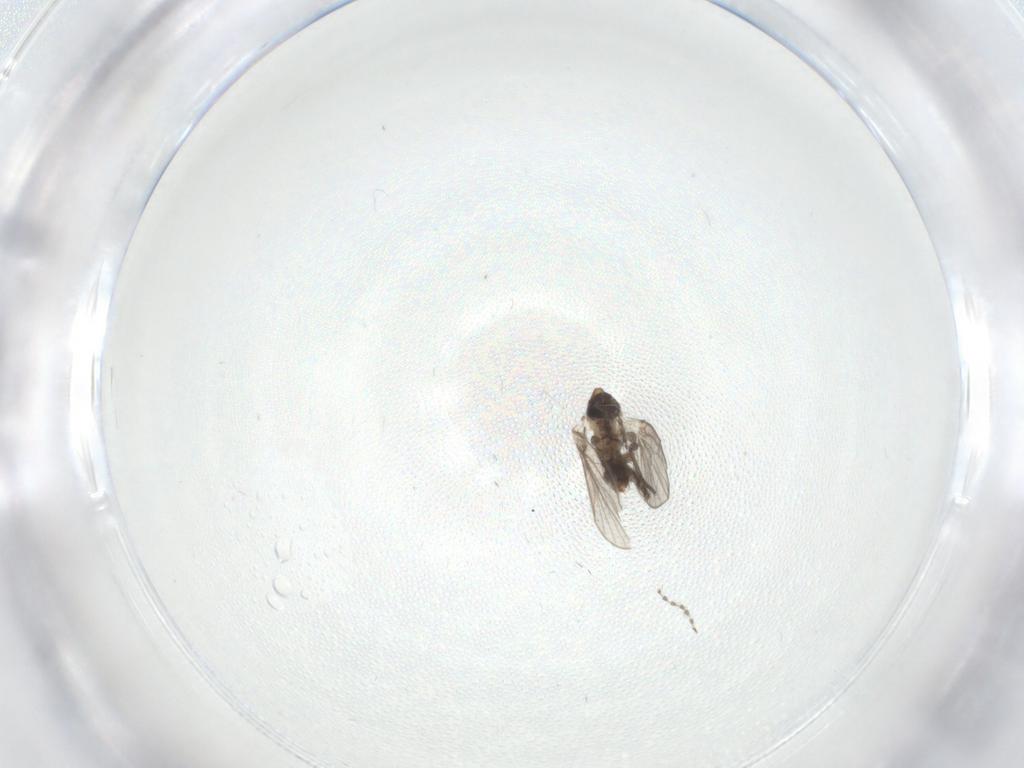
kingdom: Animalia
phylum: Arthropoda
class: Insecta
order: Diptera
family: Psychodidae
